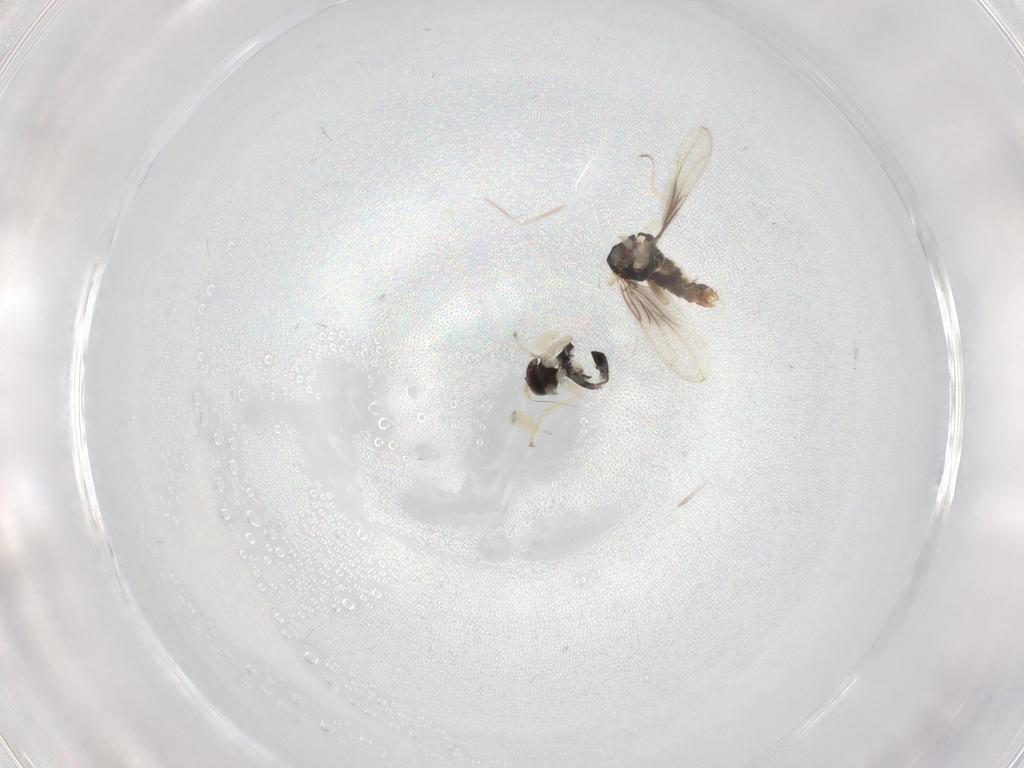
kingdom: Animalia
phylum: Arthropoda
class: Insecta
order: Diptera
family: Hybotidae
